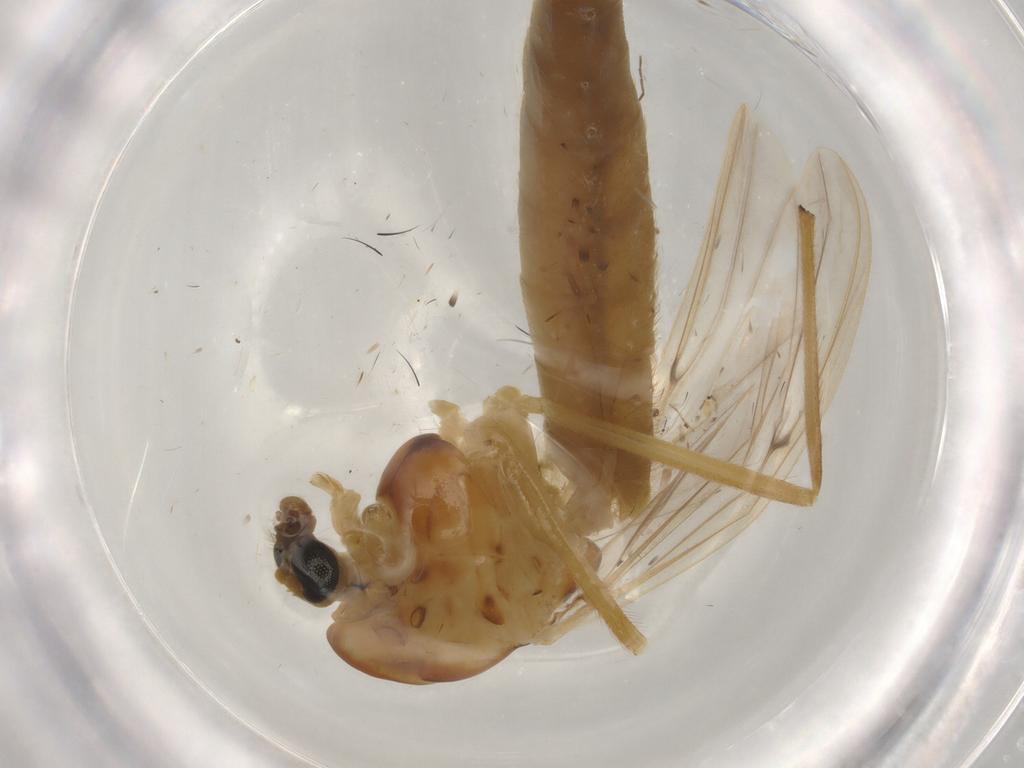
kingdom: Animalia
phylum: Arthropoda
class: Insecta
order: Diptera
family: Chironomidae
